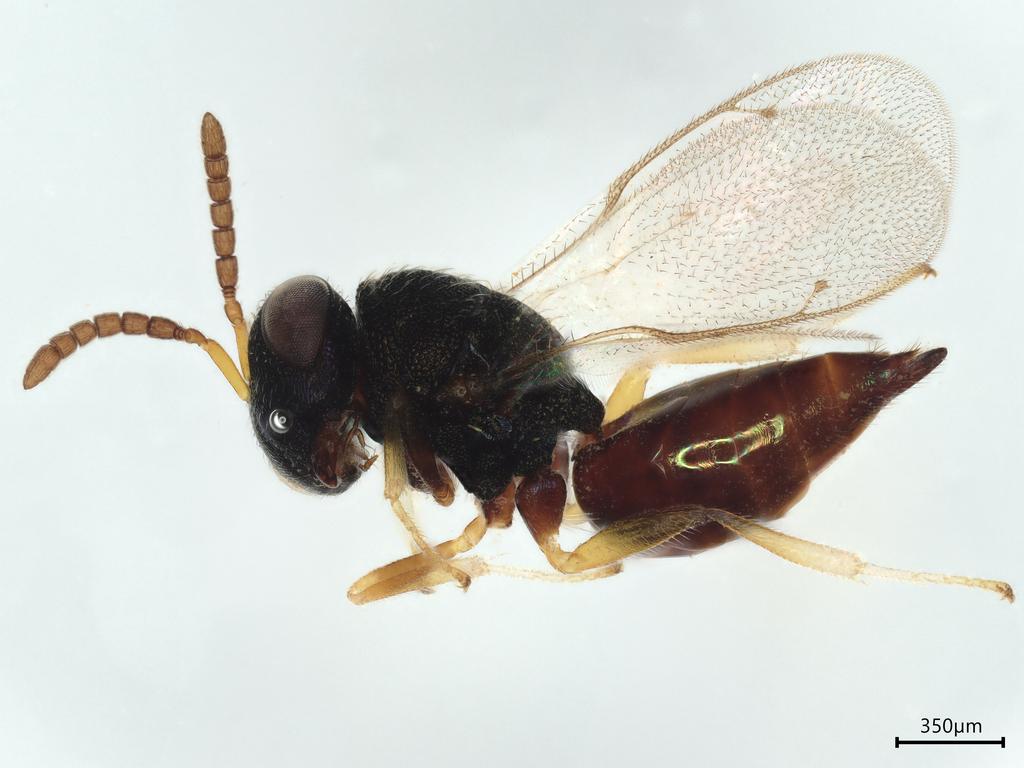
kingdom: Animalia
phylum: Arthropoda
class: Insecta
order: Hymenoptera
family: Pteromalidae
